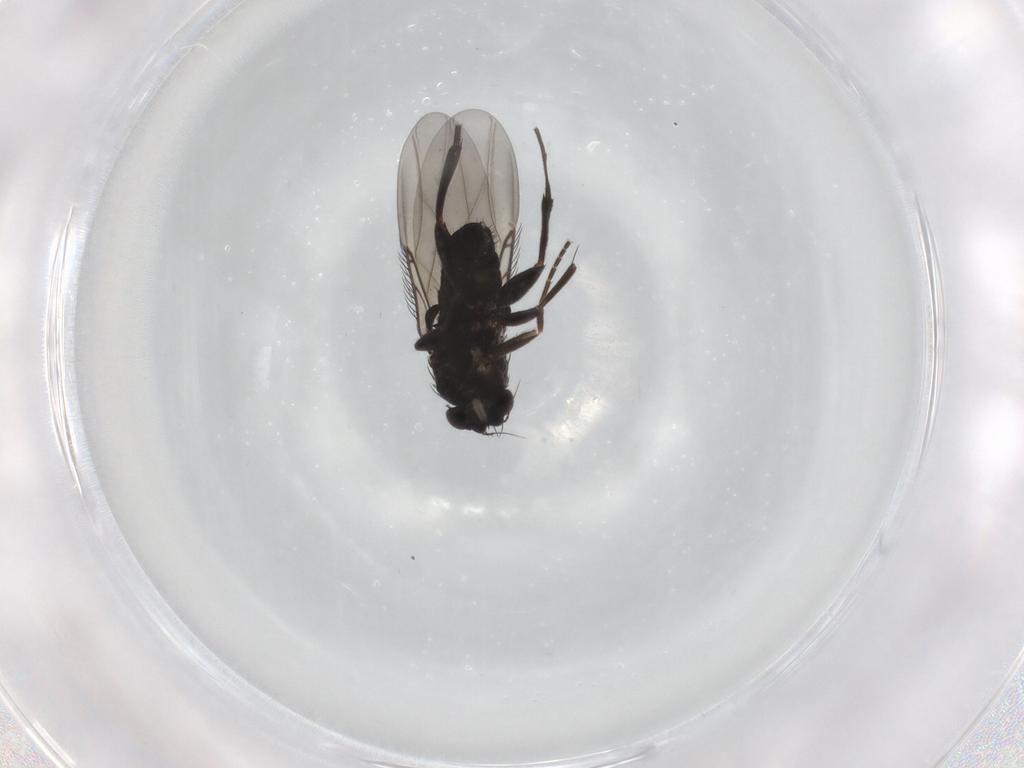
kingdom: Animalia
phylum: Arthropoda
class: Insecta
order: Diptera
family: Phoridae
